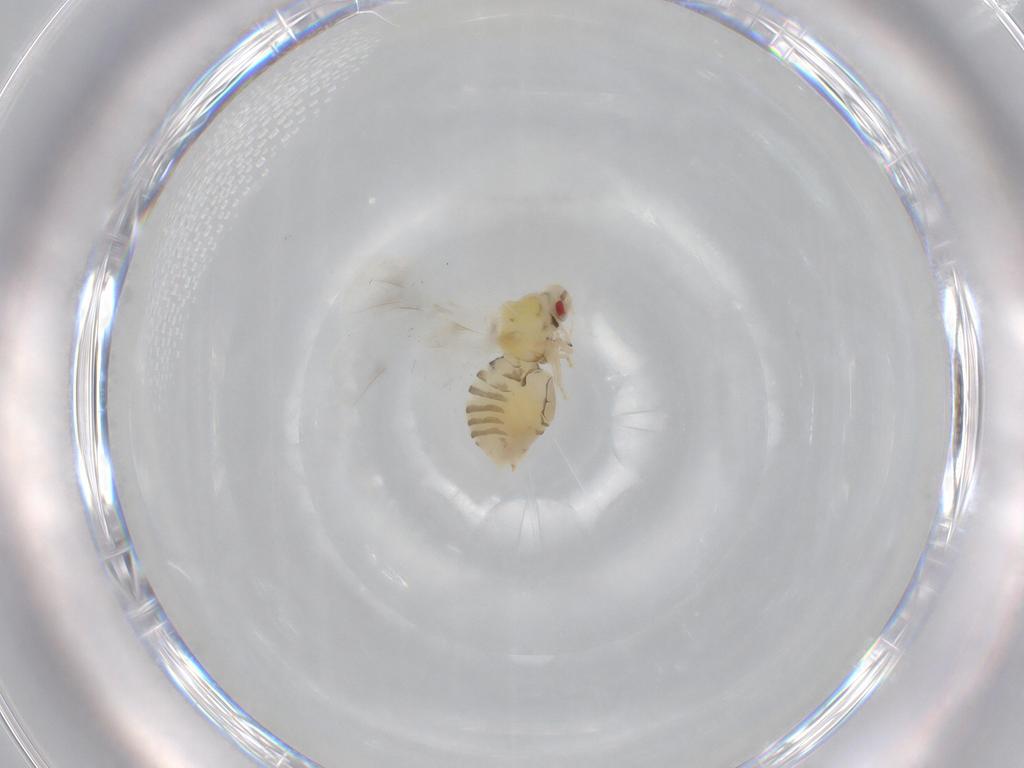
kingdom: Animalia
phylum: Arthropoda
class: Insecta
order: Hemiptera
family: Aleyrodidae
